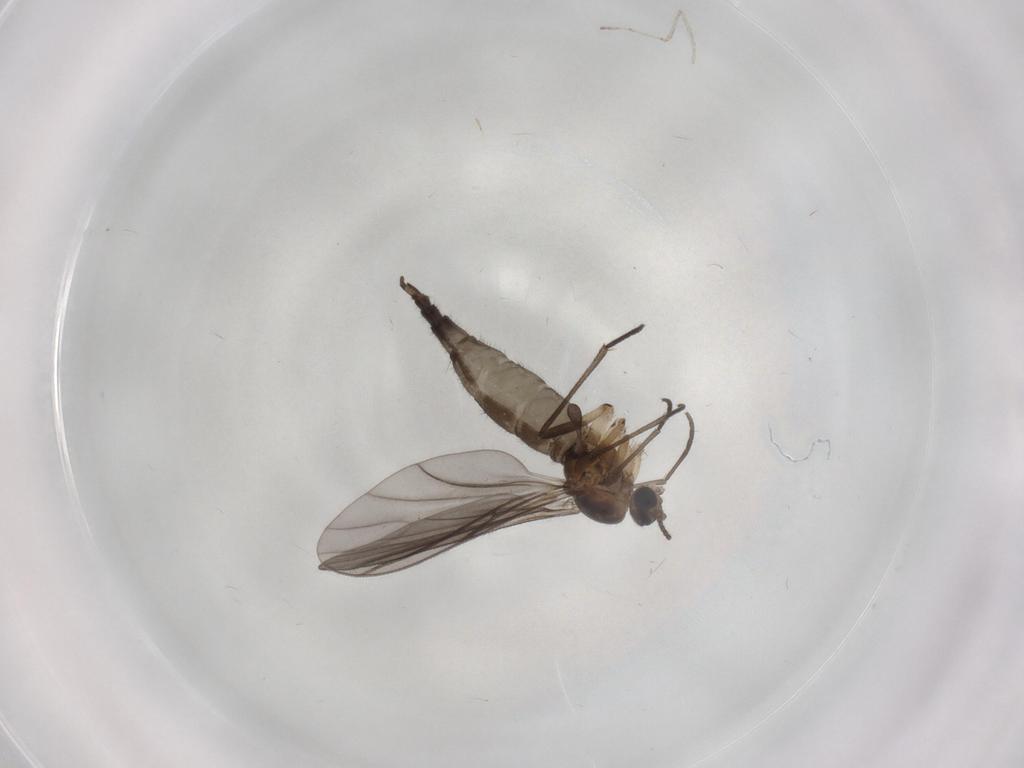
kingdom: Animalia
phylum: Arthropoda
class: Insecta
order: Diptera
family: Sciaridae
